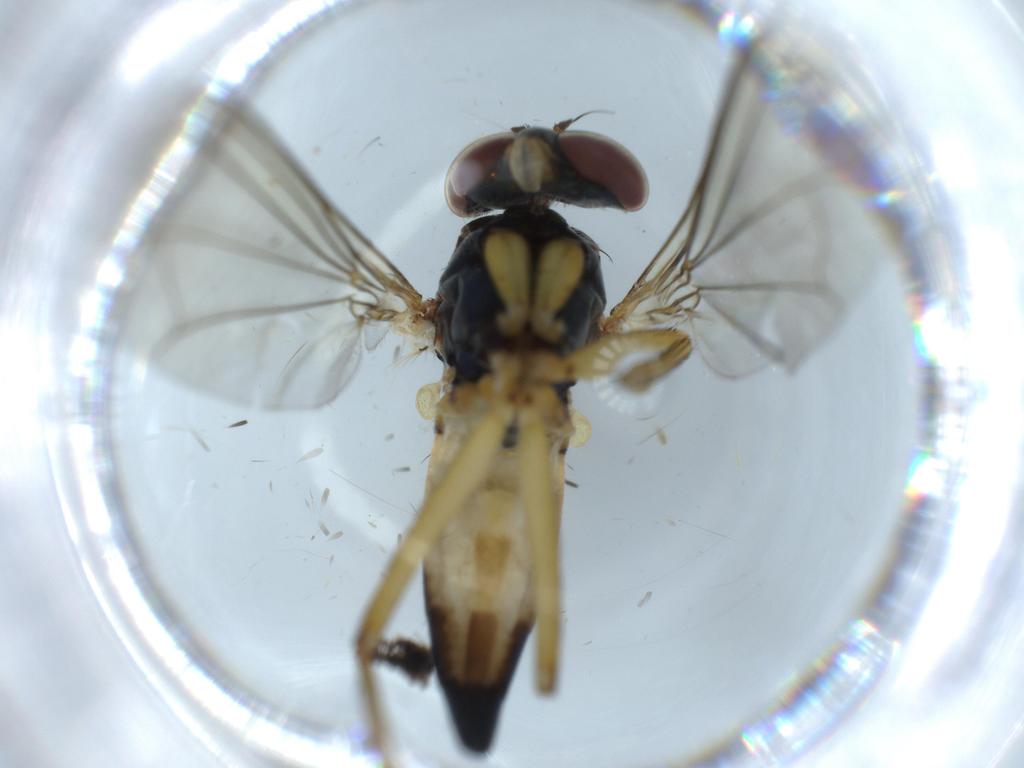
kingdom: Animalia
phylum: Arthropoda
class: Insecta
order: Diptera
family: Dolichopodidae
